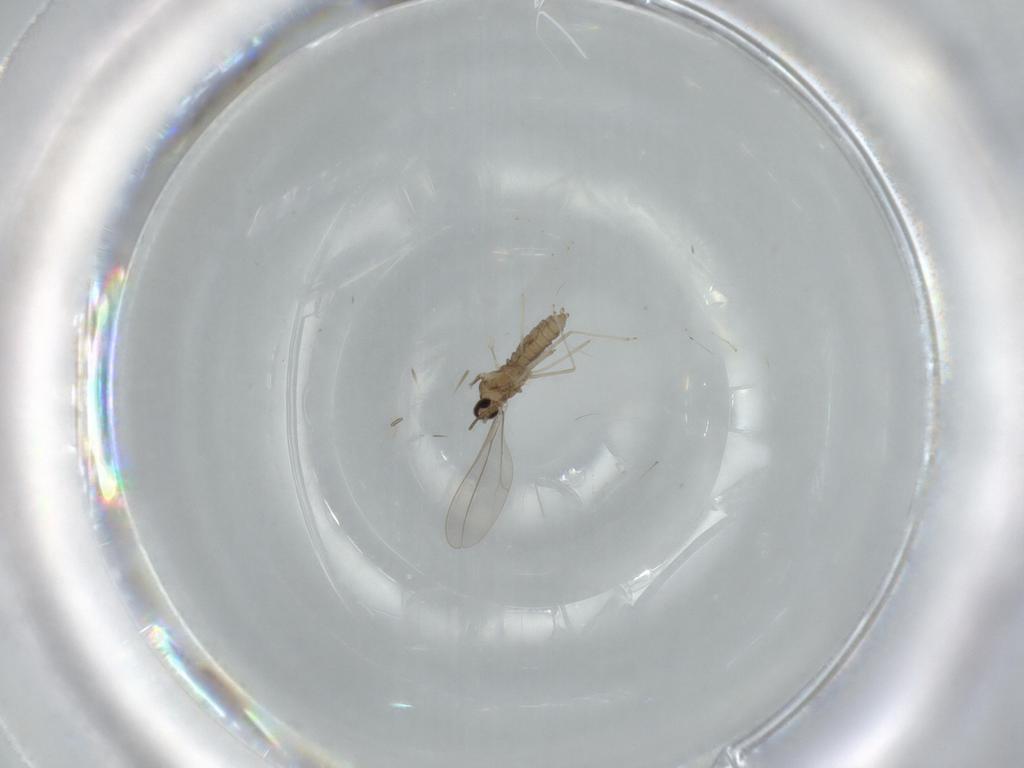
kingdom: Animalia
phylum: Arthropoda
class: Insecta
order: Diptera
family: Cecidomyiidae
